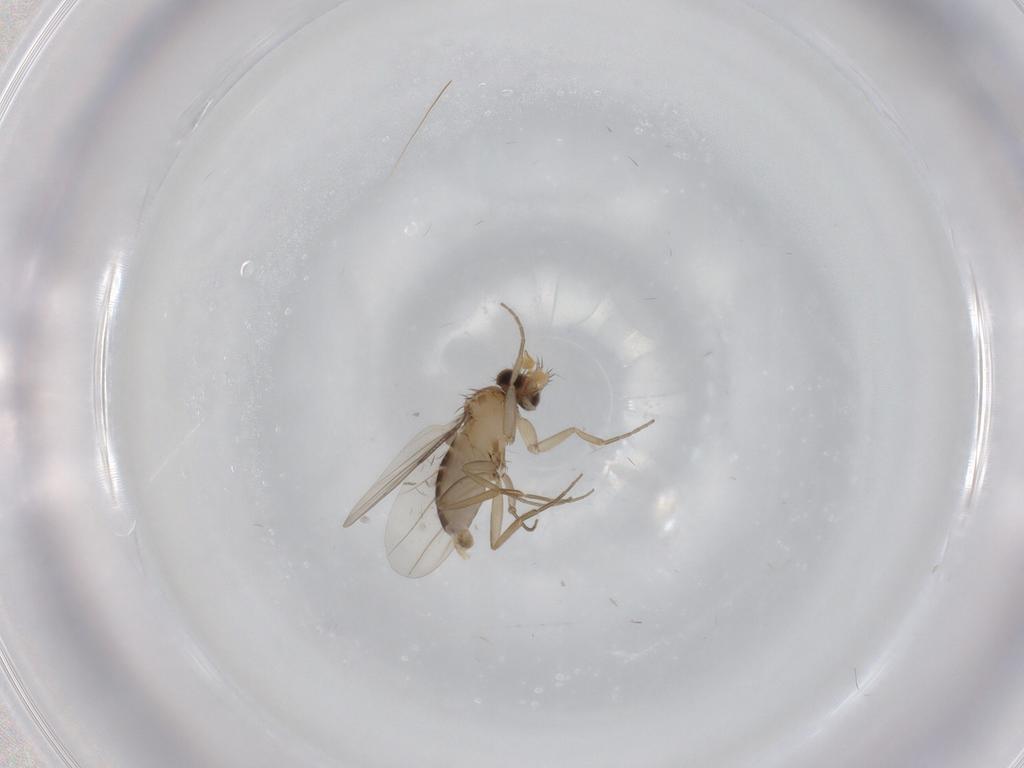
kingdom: Animalia
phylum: Arthropoda
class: Insecta
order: Diptera
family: Phoridae
